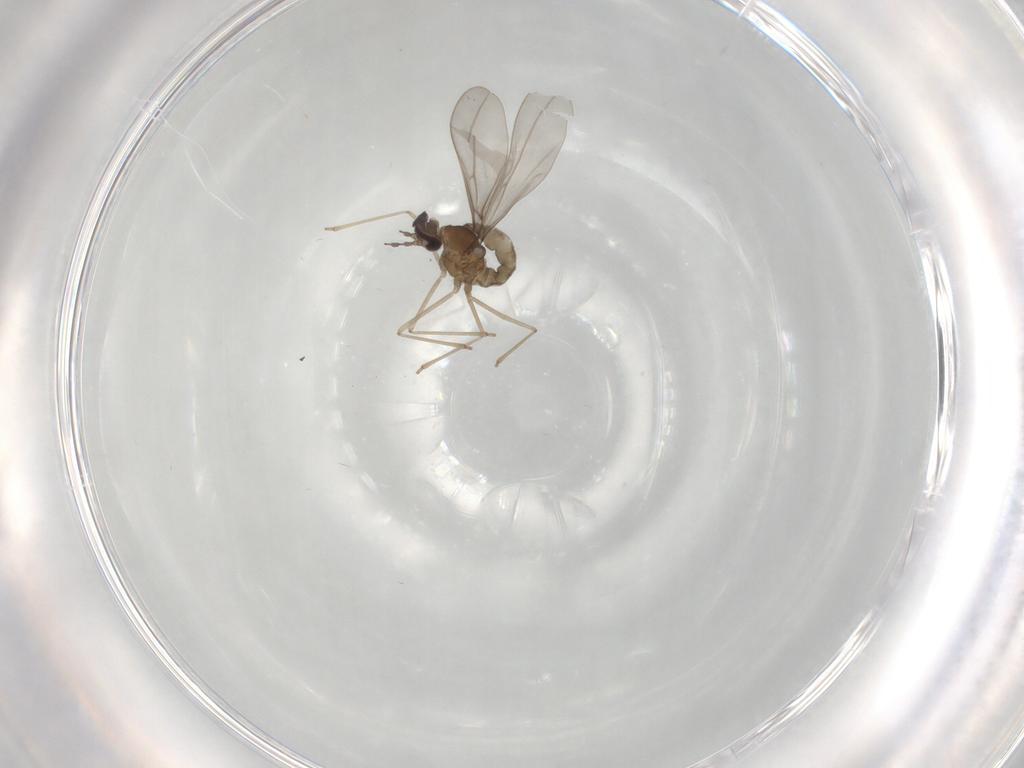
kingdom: Animalia
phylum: Arthropoda
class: Insecta
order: Diptera
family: Cecidomyiidae
